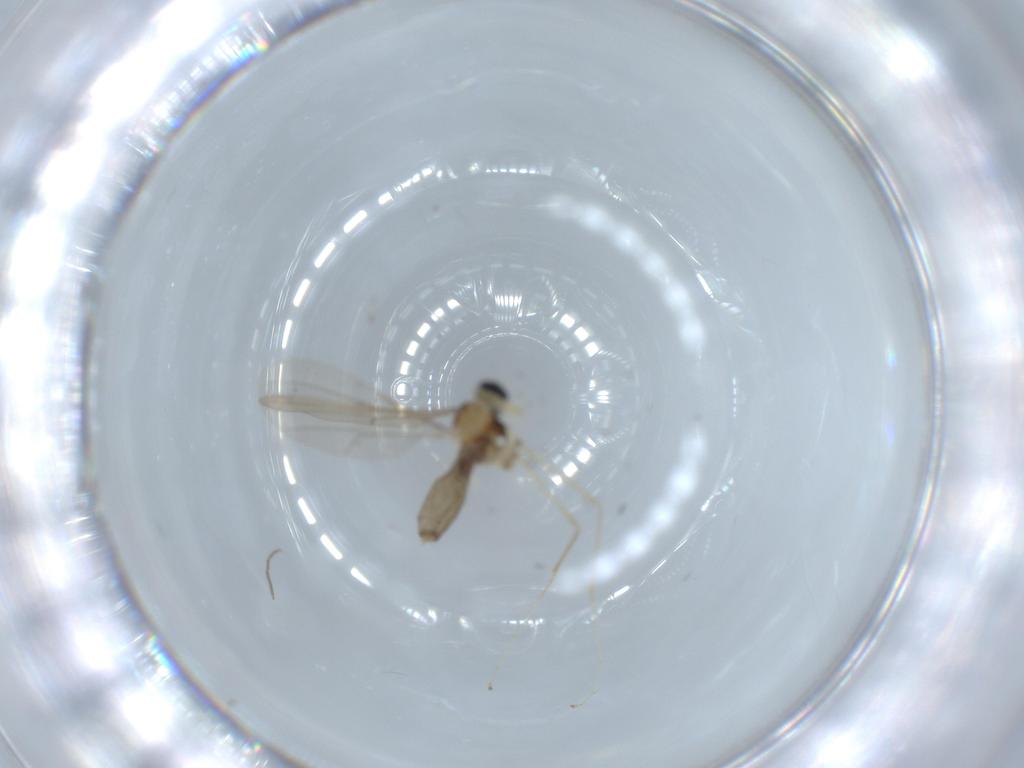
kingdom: Animalia
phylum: Arthropoda
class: Insecta
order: Diptera
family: Cecidomyiidae
